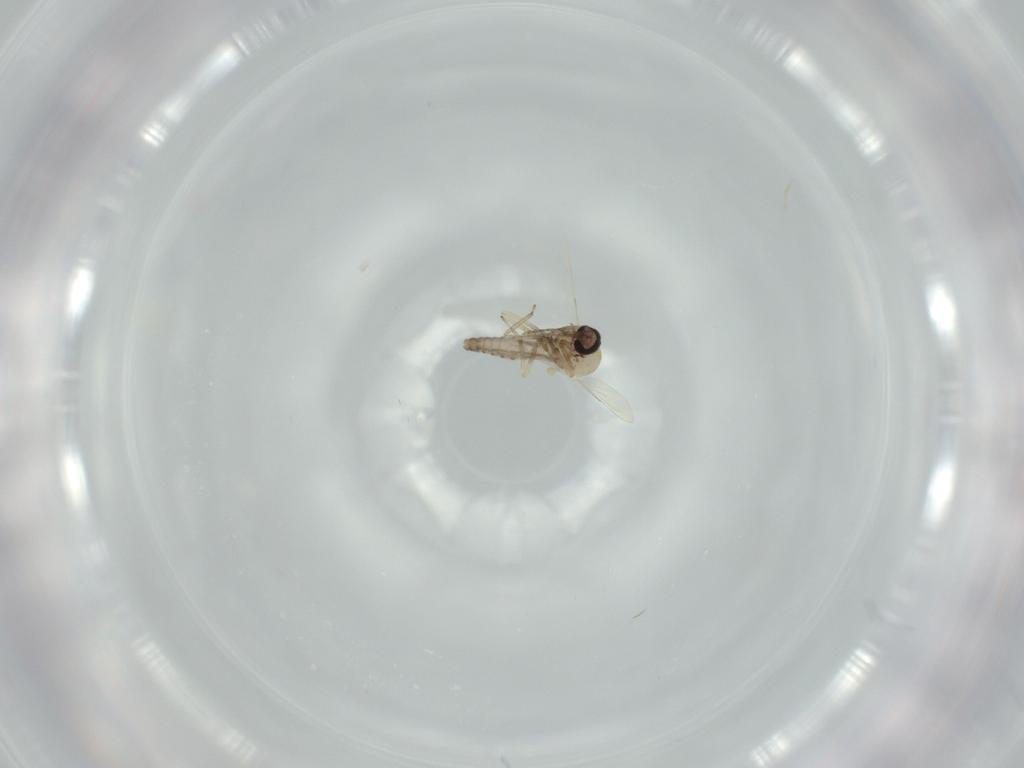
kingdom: Animalia
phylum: Arthropoda
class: Insecta
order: Diptera
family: Ceratopogonidae
